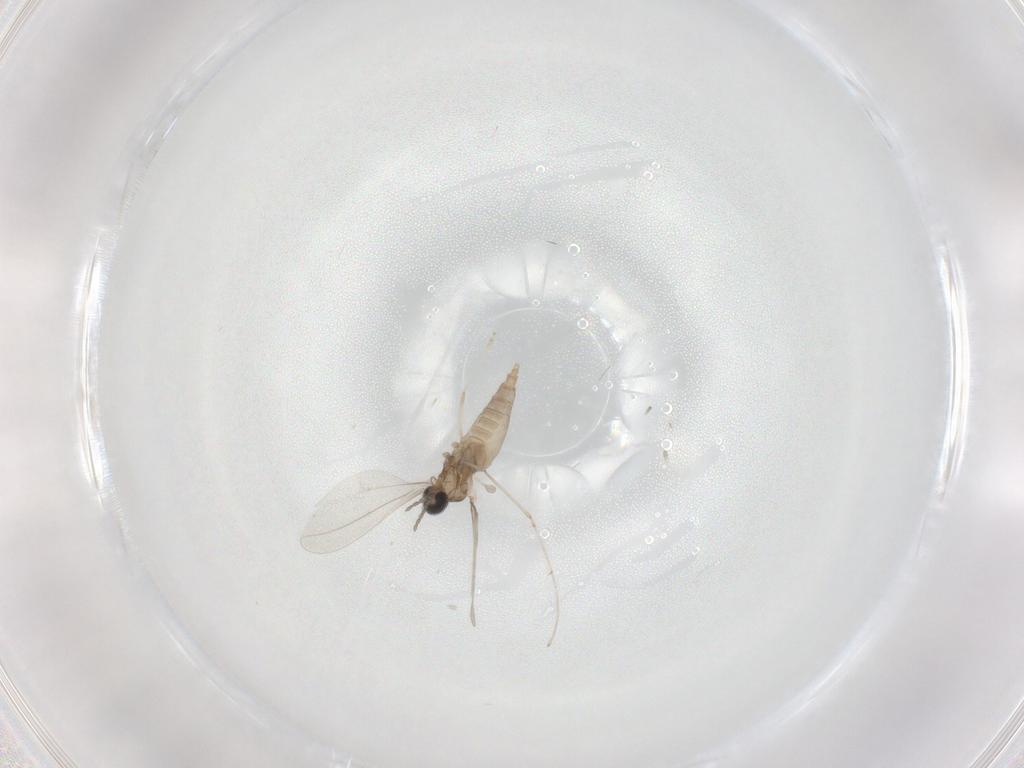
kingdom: Animalia
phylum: Arthropoda
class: Insecta
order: Diptera
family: Cecidomyiidae
